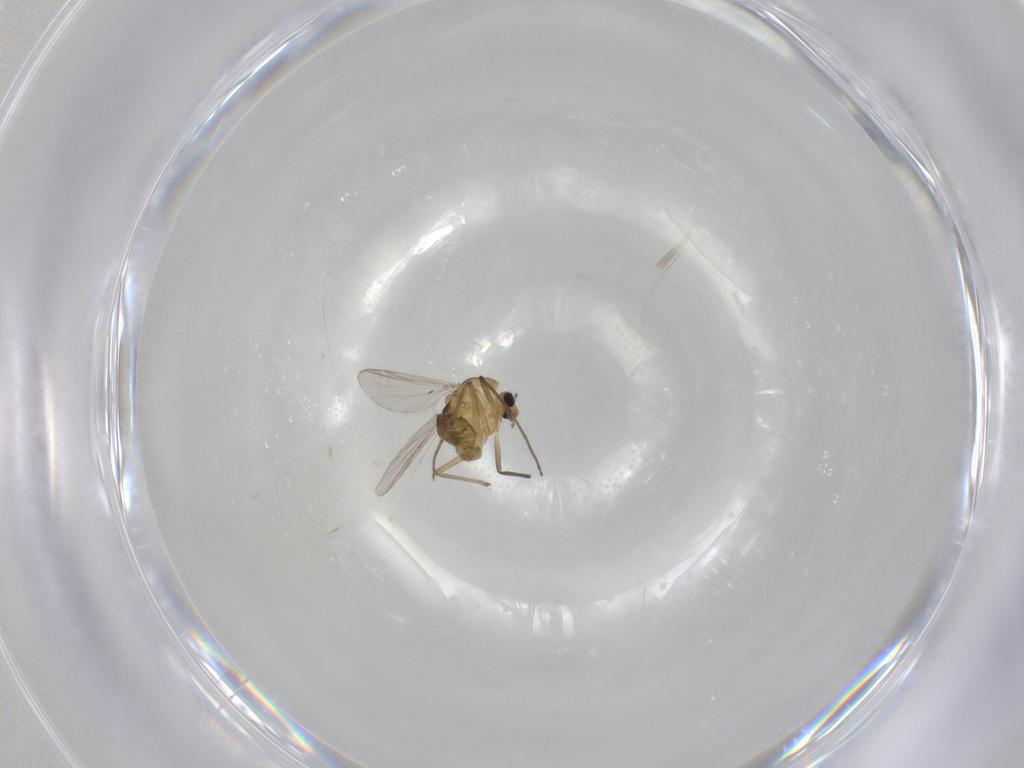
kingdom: Animalia
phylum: Arthropoda
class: Insecta
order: Diptera
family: Chironomidae
